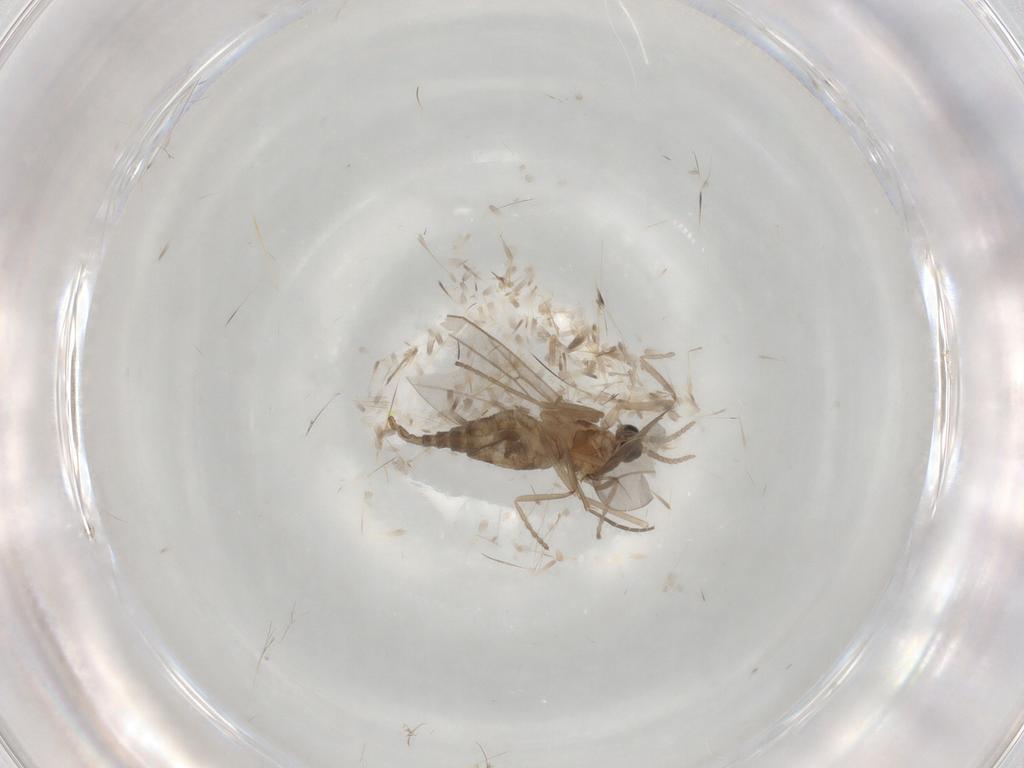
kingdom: Animalia
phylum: Arthropoda
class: Insecta
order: Diptera
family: Sciaridae
